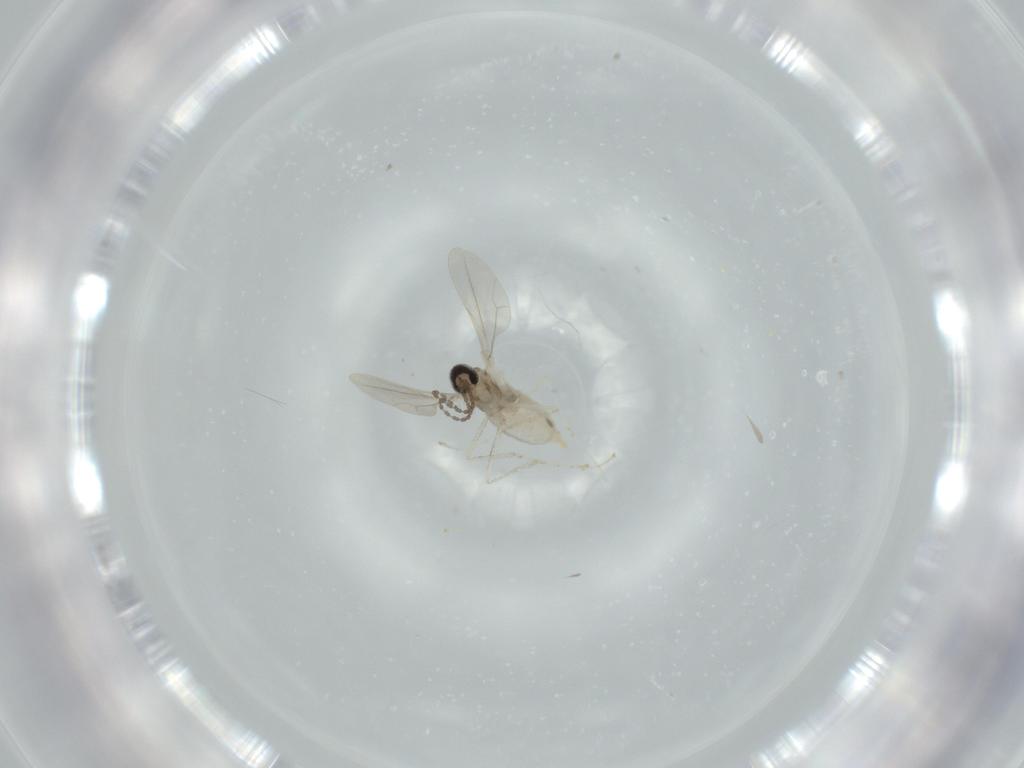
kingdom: Animalia
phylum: Arthropoda
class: Insecta
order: Diptera
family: Cecidomyiidae
